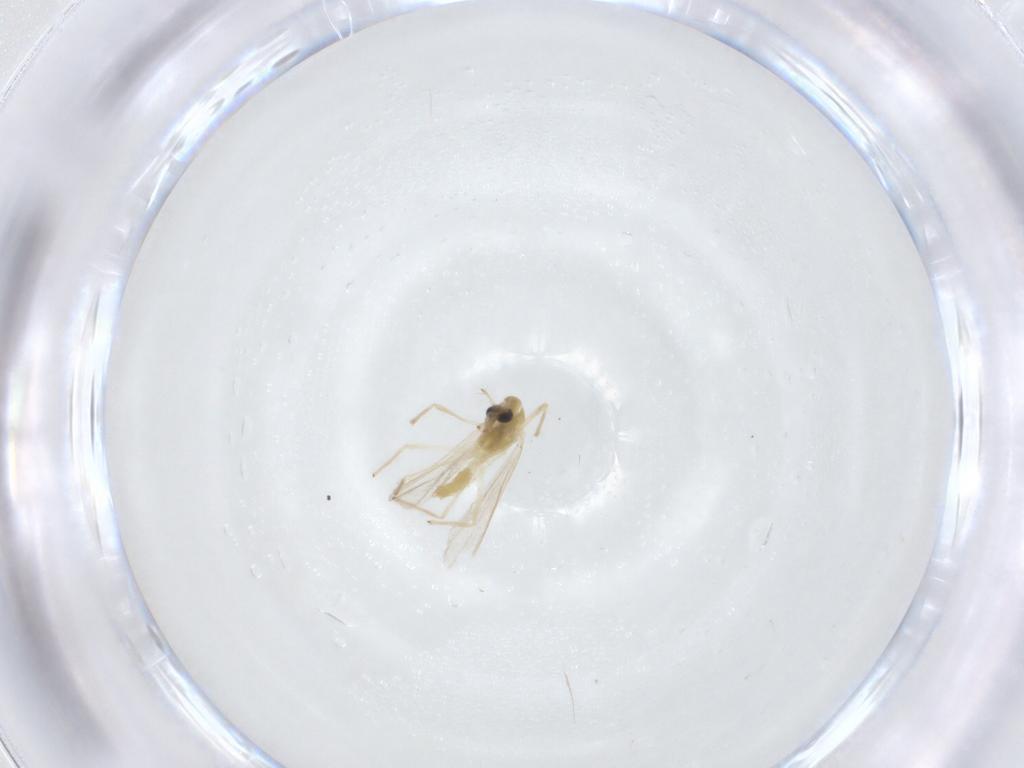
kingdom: Animalia
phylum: Arthropoda
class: Insecta
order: Diptera
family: Chironomidae
